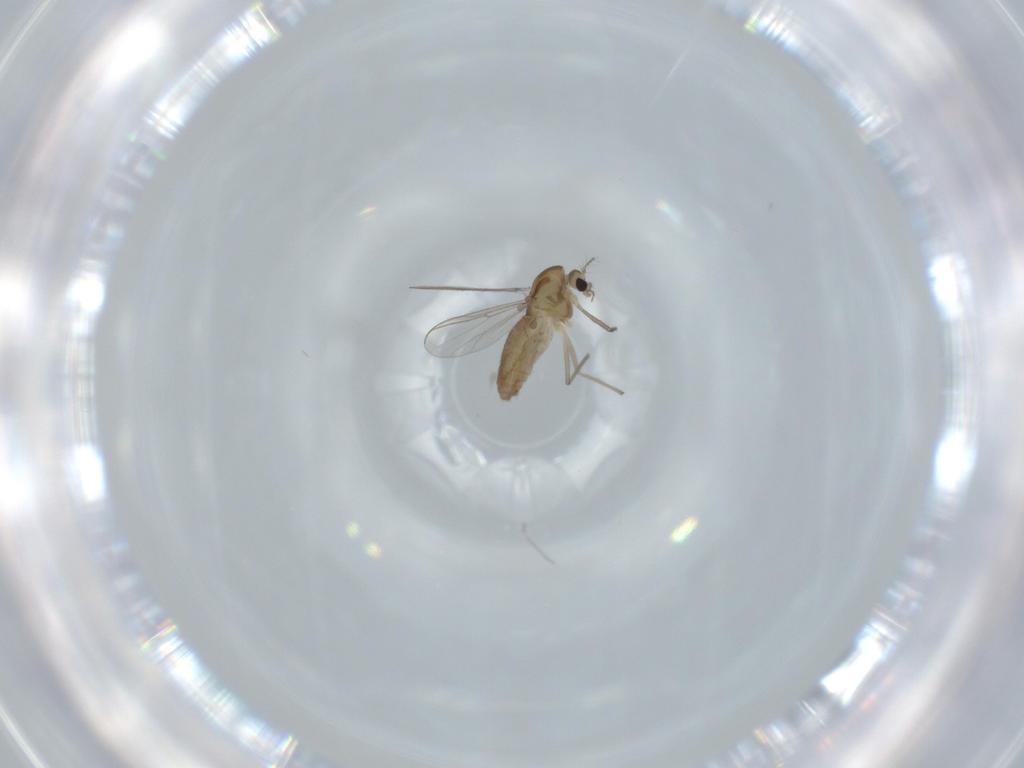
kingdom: Animalia
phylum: Arthropoda
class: Insecta
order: Diptera
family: Chironomidae
